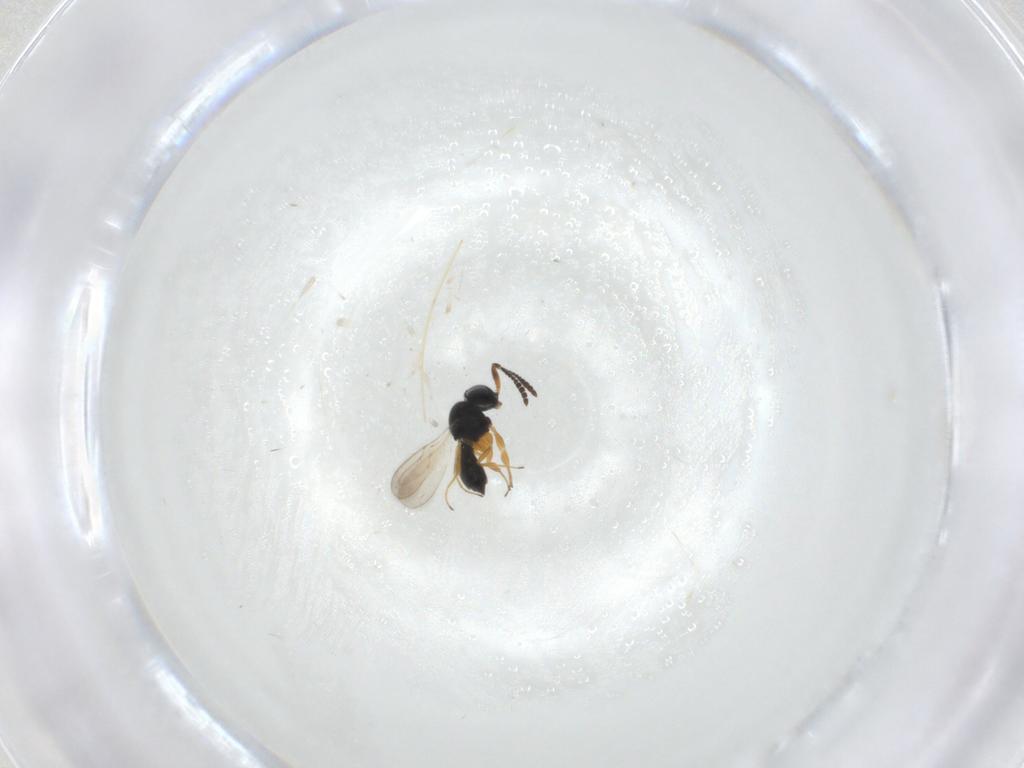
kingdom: Animalia
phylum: Arthropoda
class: Insecta
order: Hymenoptera
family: Scelionidae
